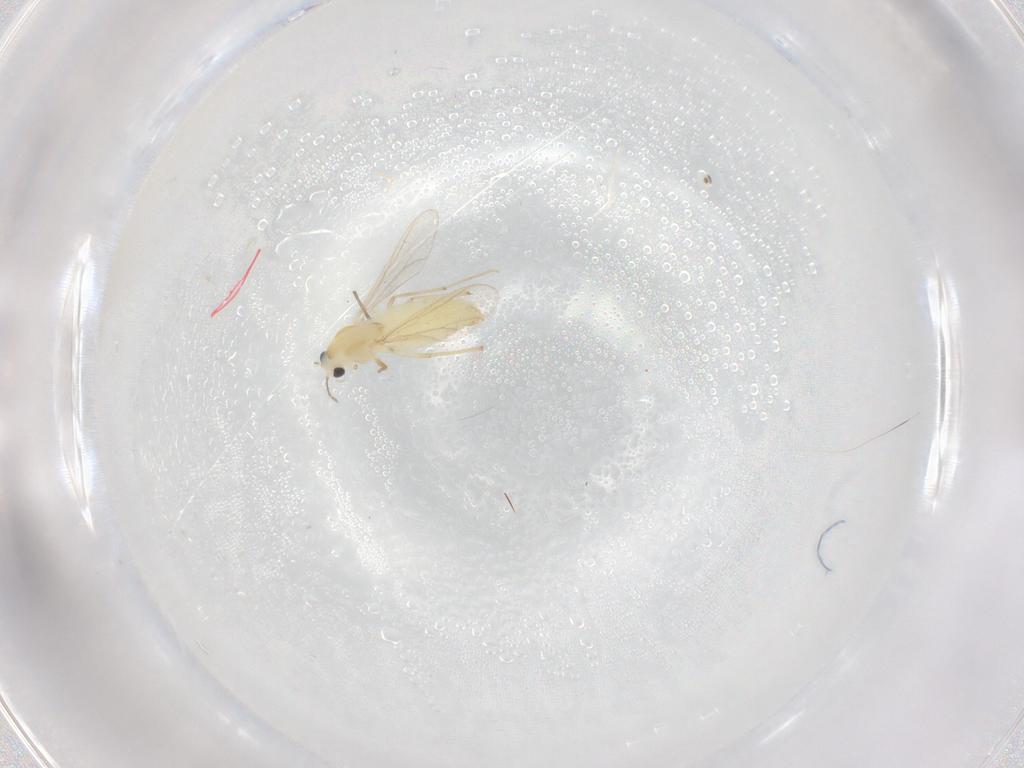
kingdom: Animalia
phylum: Arthropoda
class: Insecta
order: Diptera
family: Chironomidae
